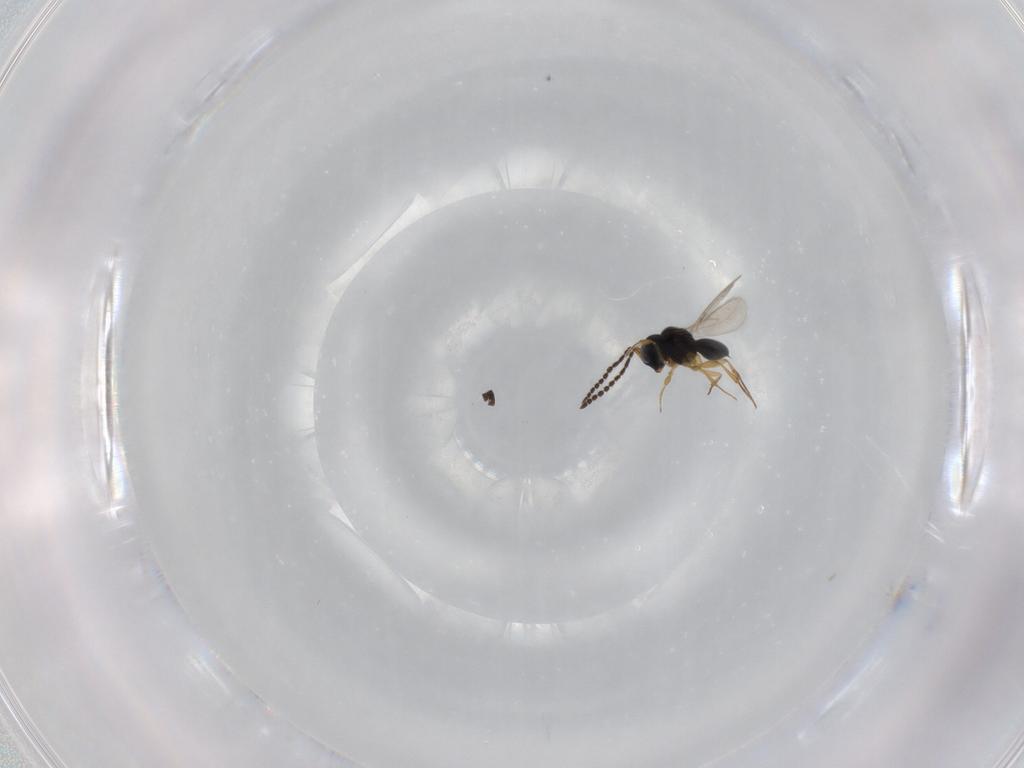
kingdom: Animalia
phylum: Arthropoda
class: Insecta
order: Hymenoptera
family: Scelionidae
